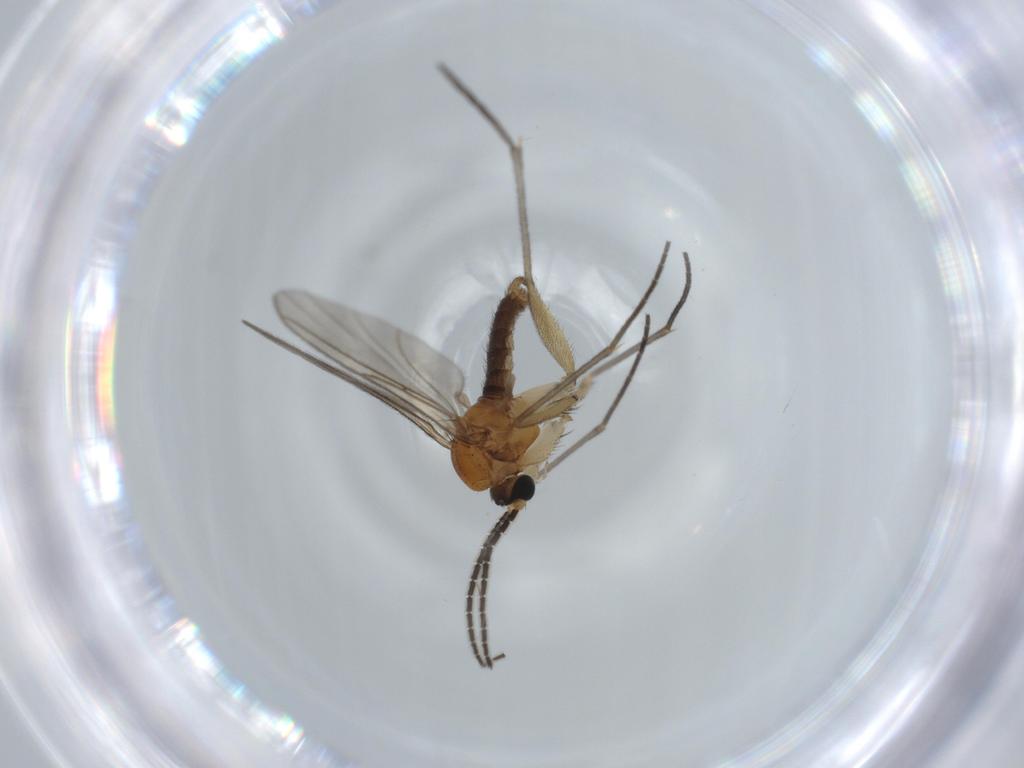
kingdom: Animalia
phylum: Arthropoda
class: Insecta
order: Diptera
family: Sciaridae
